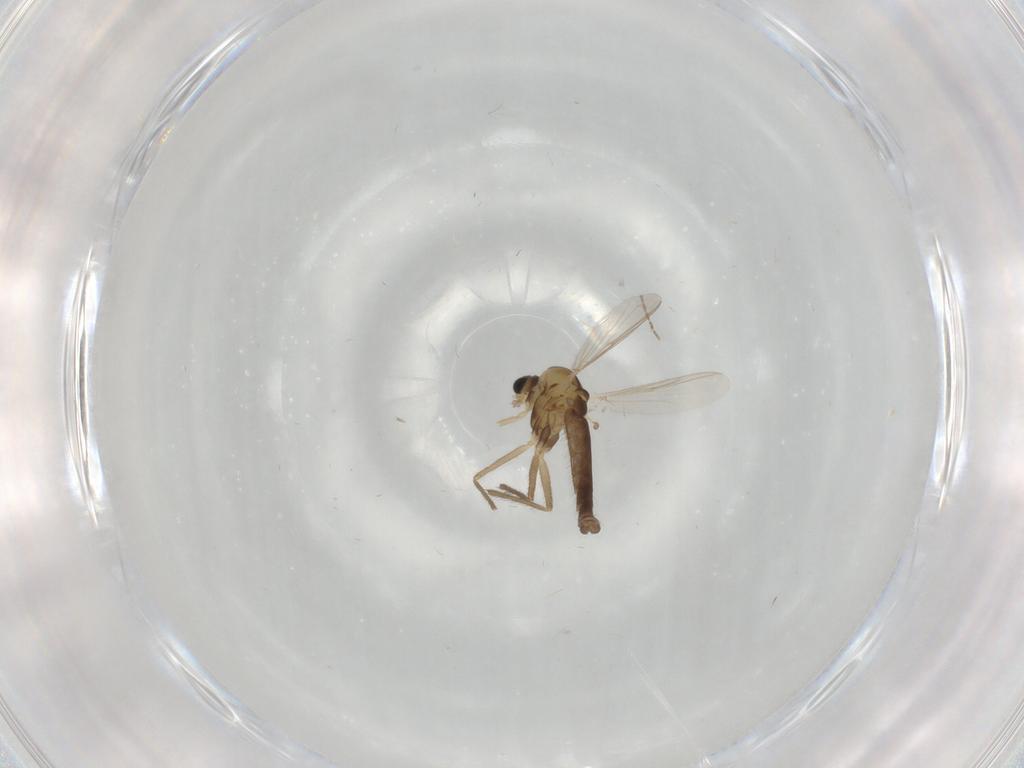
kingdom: Animalia
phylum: Arthropoda
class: Insecta
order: Diptera
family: Chironomidae
